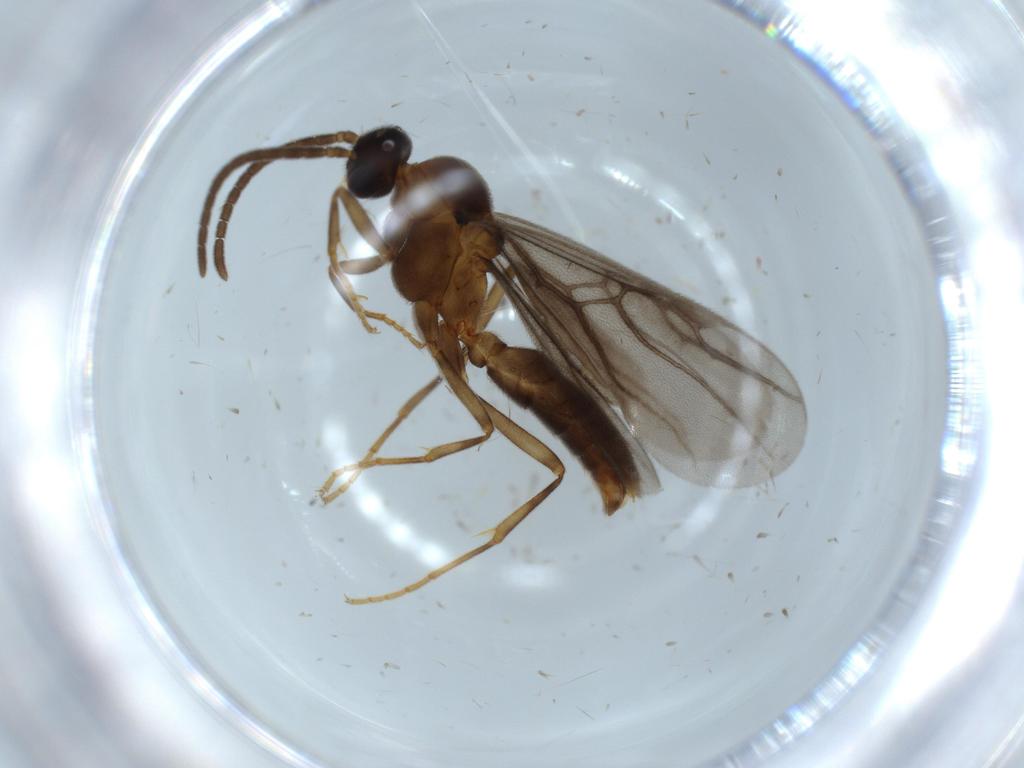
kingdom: Animalia
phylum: Arthropoda
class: Insecta
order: Hymenoptera
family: Formicidae
